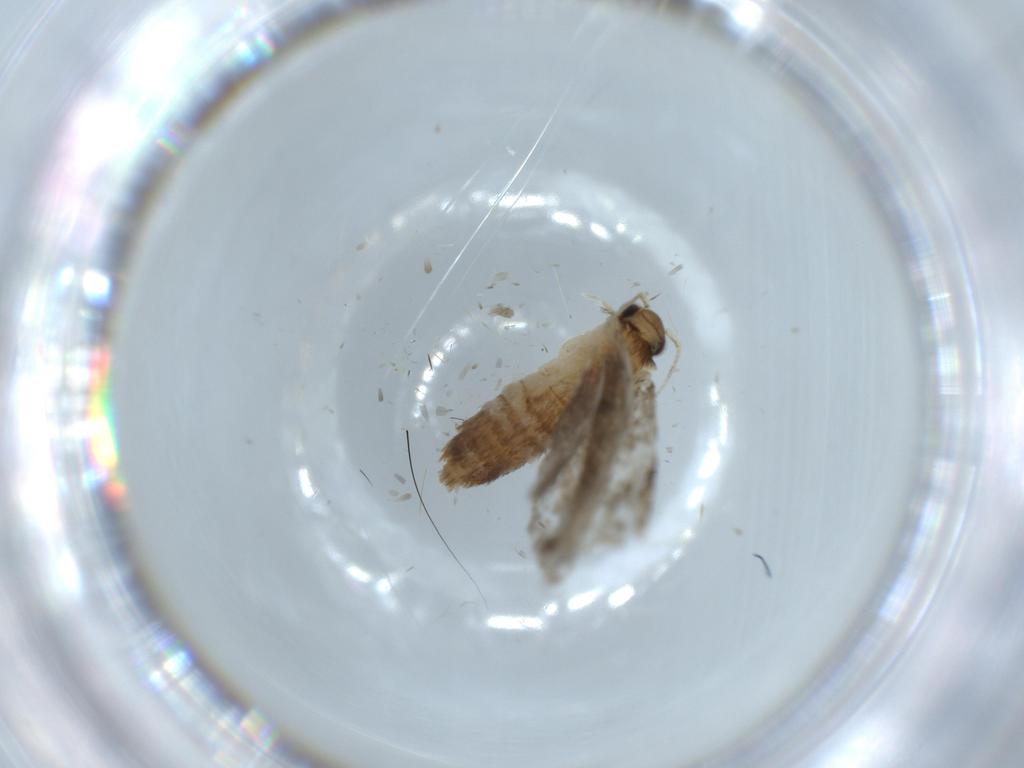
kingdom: Animalia
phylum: Arthropoda
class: Insecta
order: Lepidoptera
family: Tineidae
